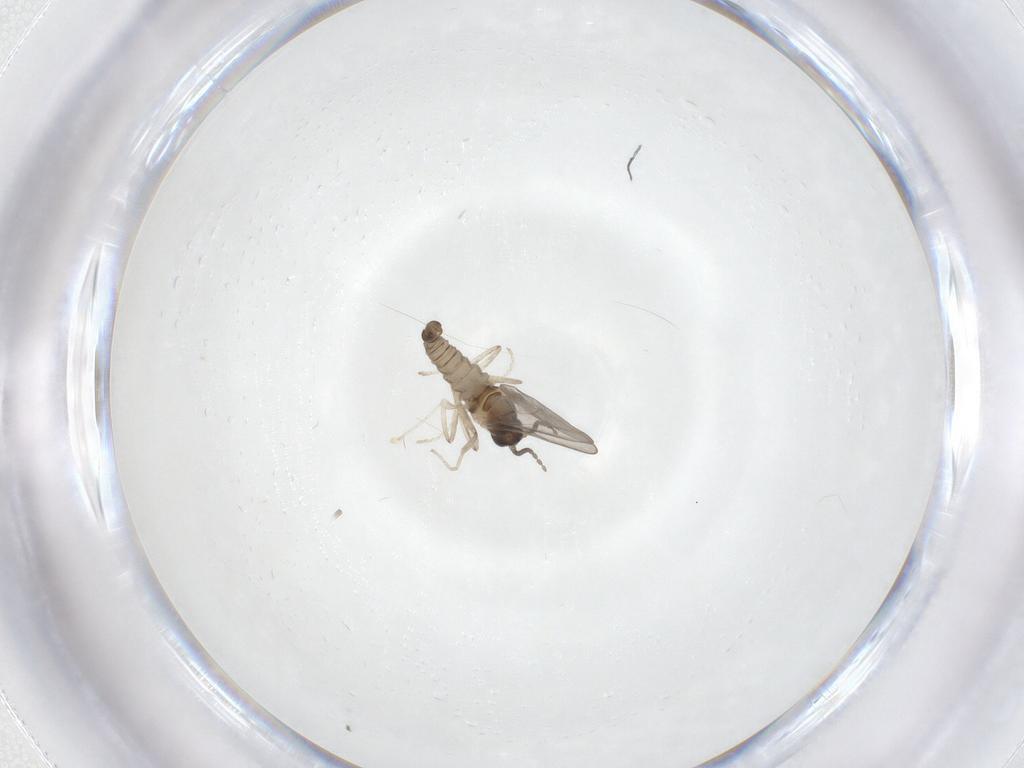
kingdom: Animalia
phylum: Arthropoda
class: Insecta
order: Diptera
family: Cecidomyiidae
